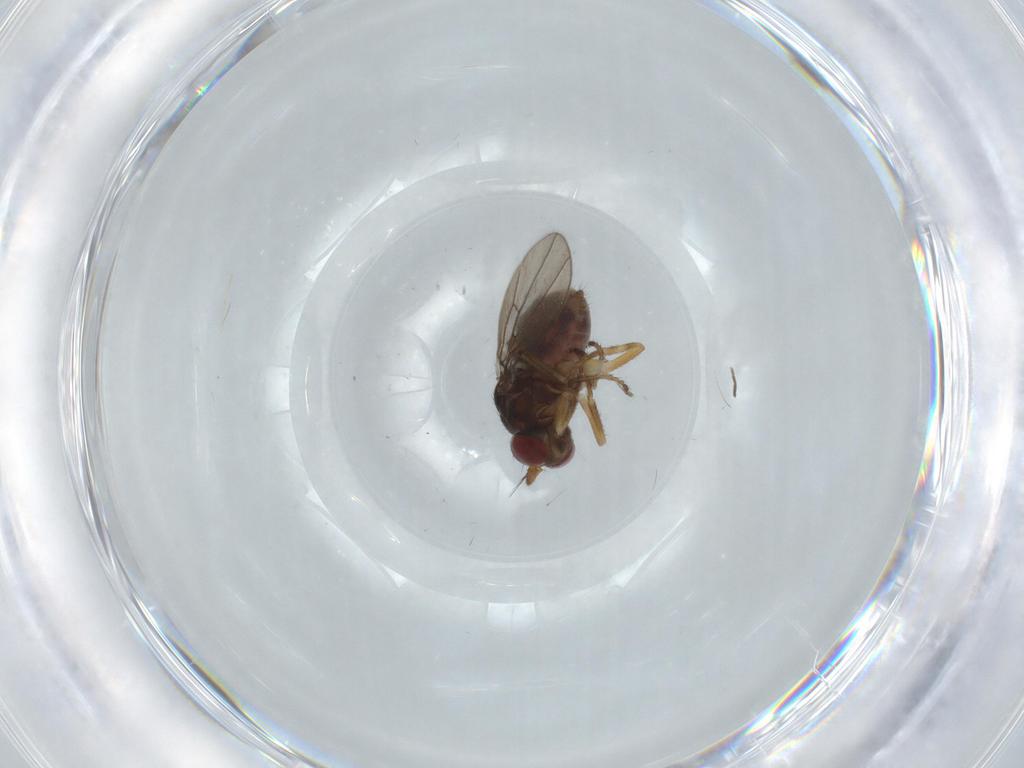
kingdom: Animalia
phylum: Arthropoda
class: Insecta
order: Diptera
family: Ephydridae
